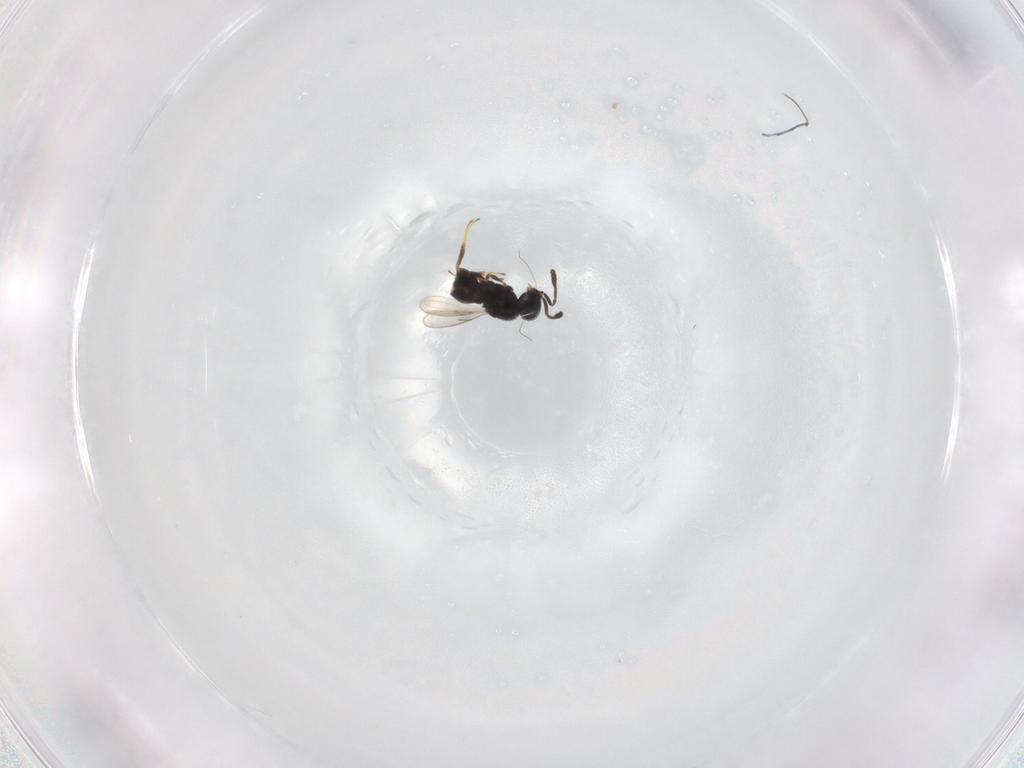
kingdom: Animalia
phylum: Arthropoda
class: Insecta
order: Hymenoptera
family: Scelionidae
